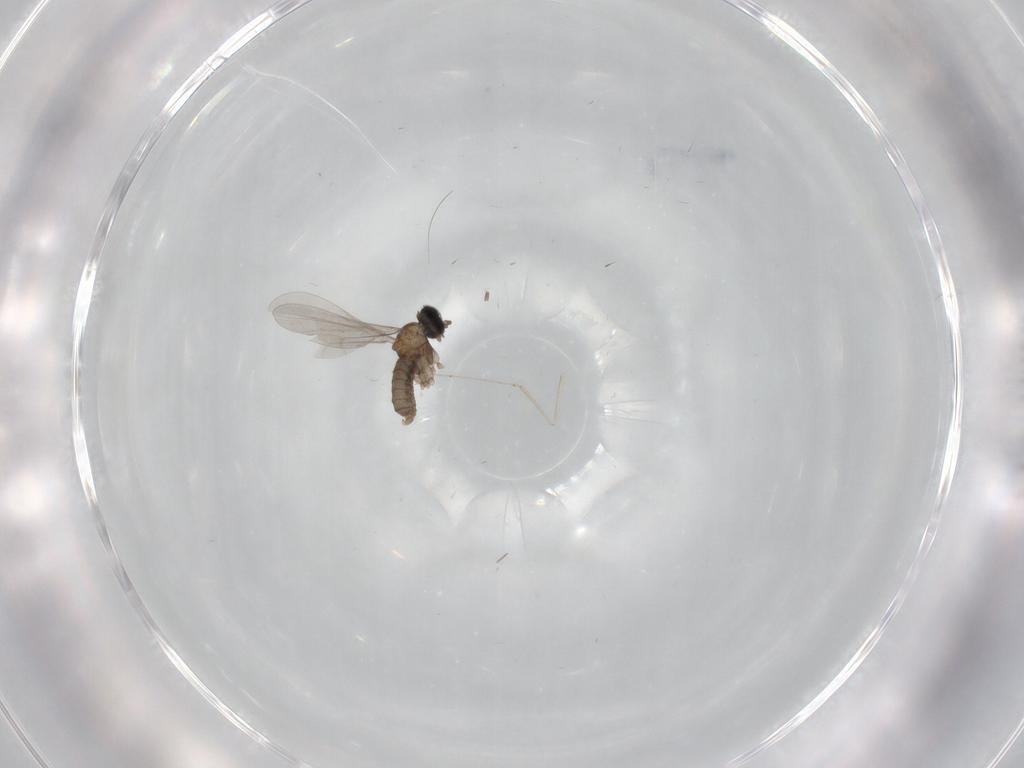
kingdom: Animalia
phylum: Arthropoda
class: Insecta
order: Diptera
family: Cecidomyiidae
